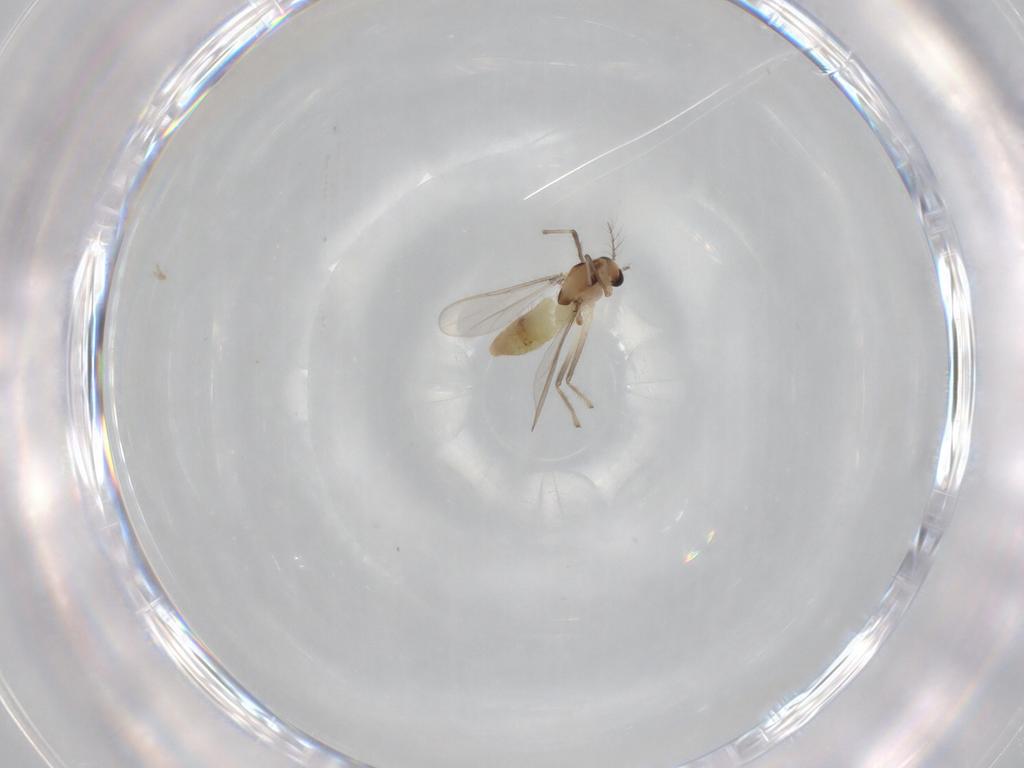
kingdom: Animalia
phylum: Arthropoda
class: Insecta
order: Diptera
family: Chironomidae
